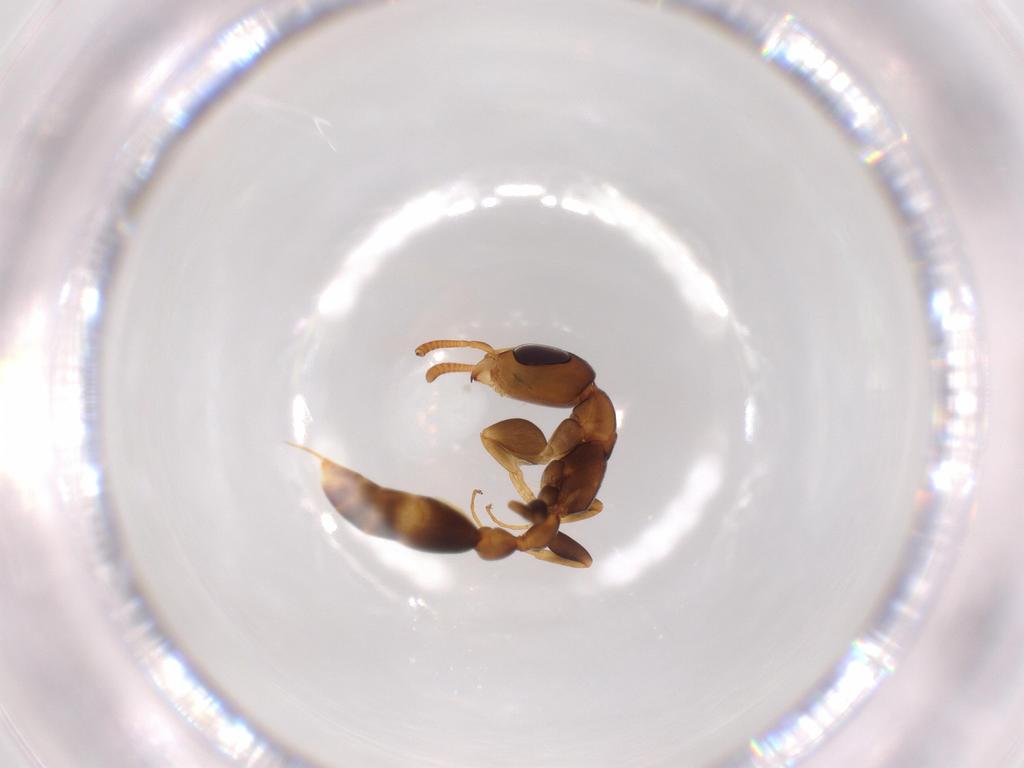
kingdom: Animalia
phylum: Arthropoda
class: Insecta
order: Hymenoptera
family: Formicidae
